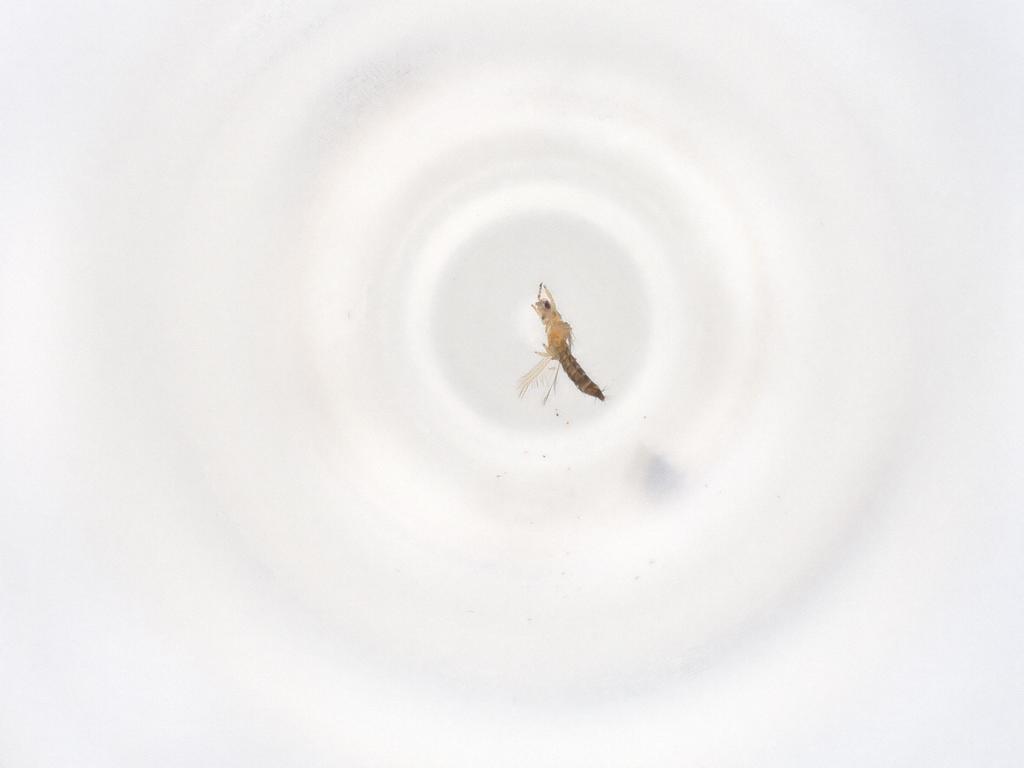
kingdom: Animalia
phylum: Arthropoda
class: Insecta
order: Thysanoptera
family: Thripidae
